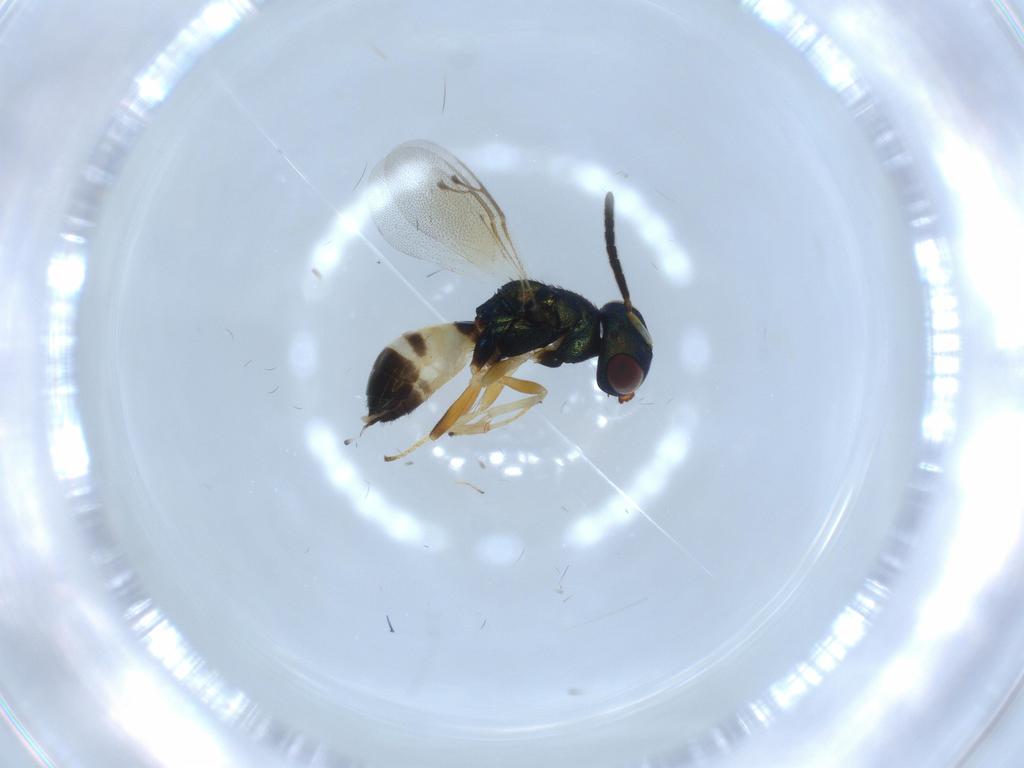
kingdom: Animalia
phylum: Arthropoda
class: Insecta
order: Hymenoptera
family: Pteromalidae
